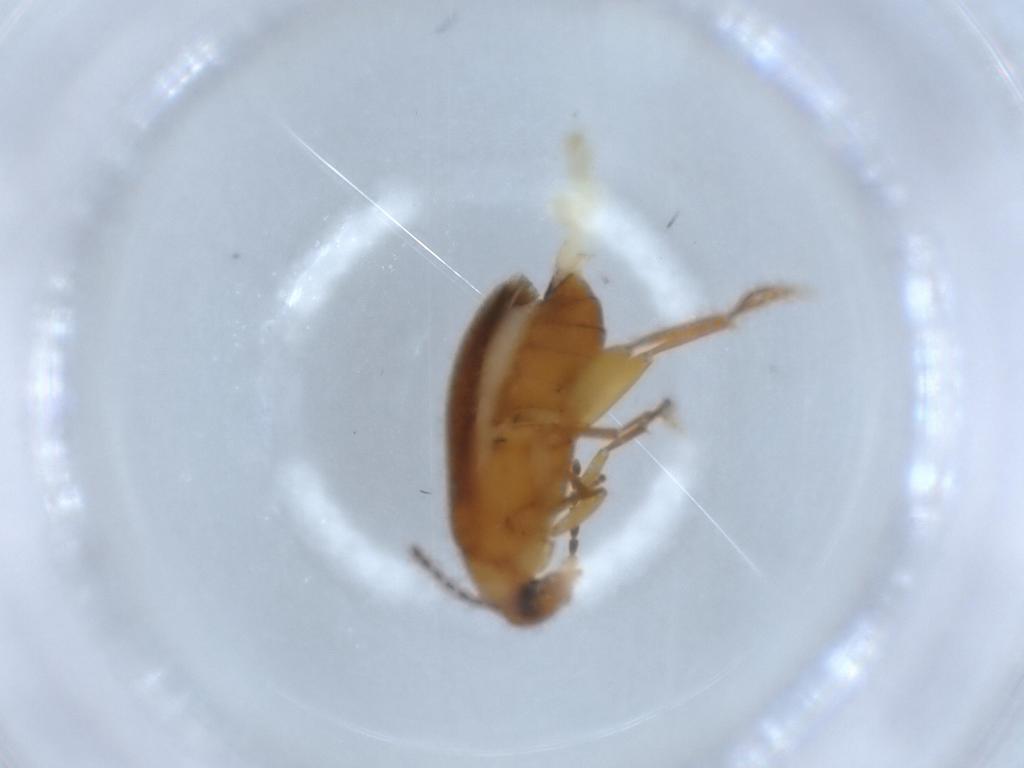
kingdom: Animalia
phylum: Arthropoda
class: Insecta
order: Coleoptera
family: Scraptiidae
